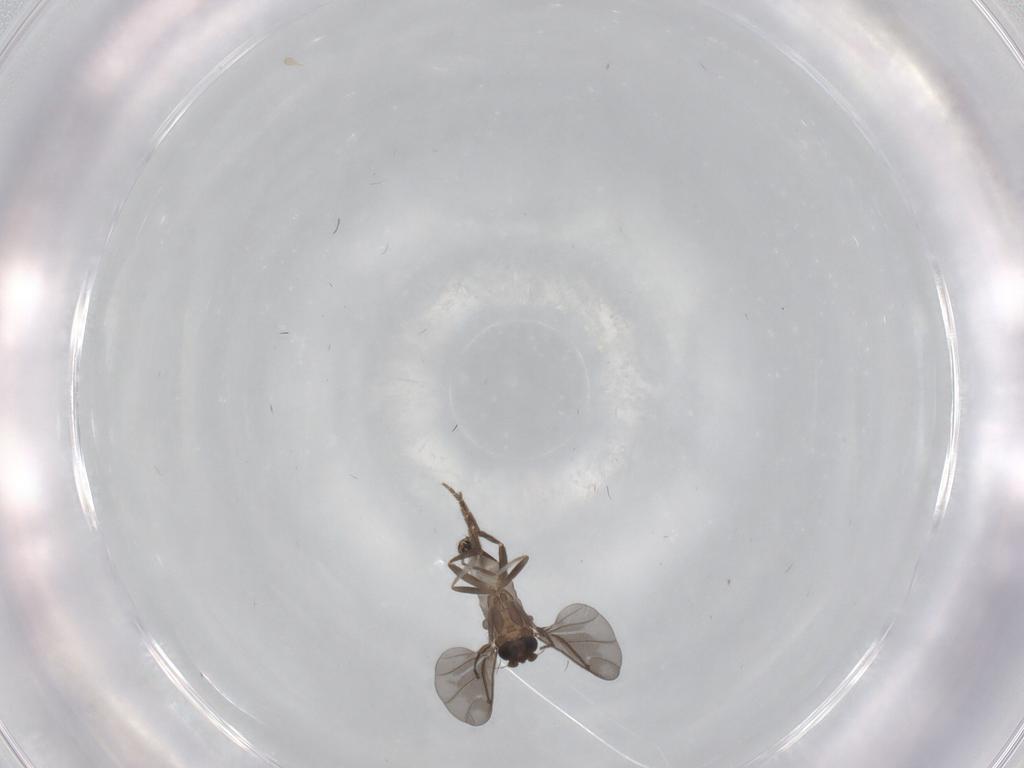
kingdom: Animalia
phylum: Arthropoda
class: Insecta
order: Diptera
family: Phoridae
